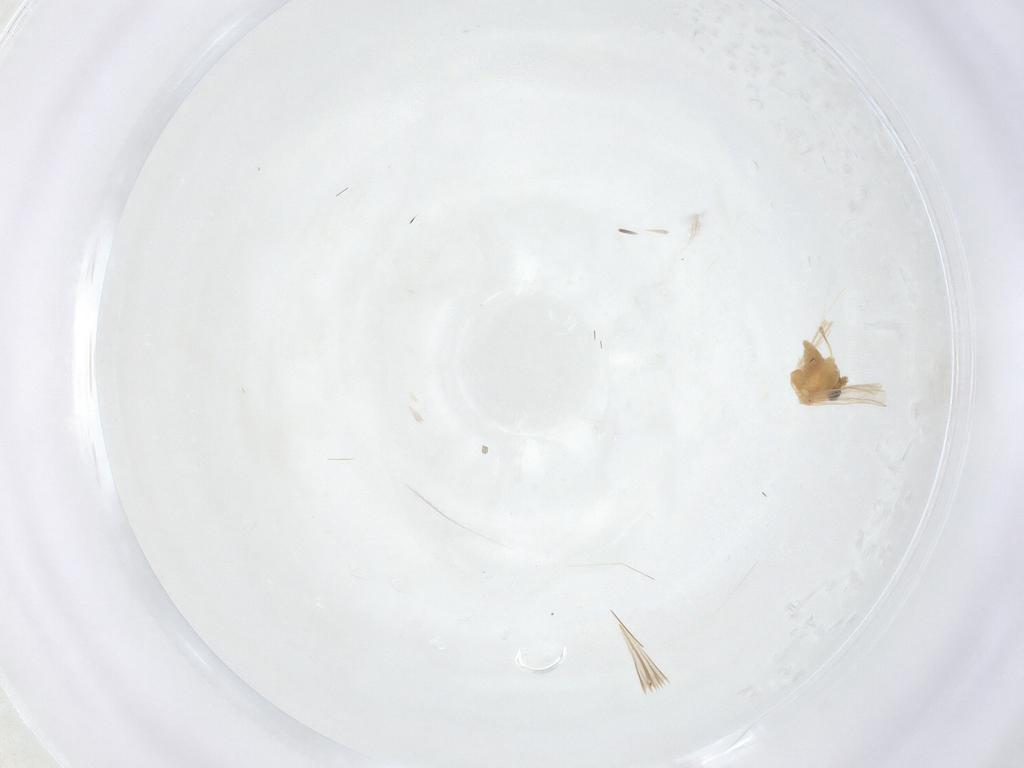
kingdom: Animalia
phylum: Arthropoda
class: Insecta
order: Diptera
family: Chironomidae
